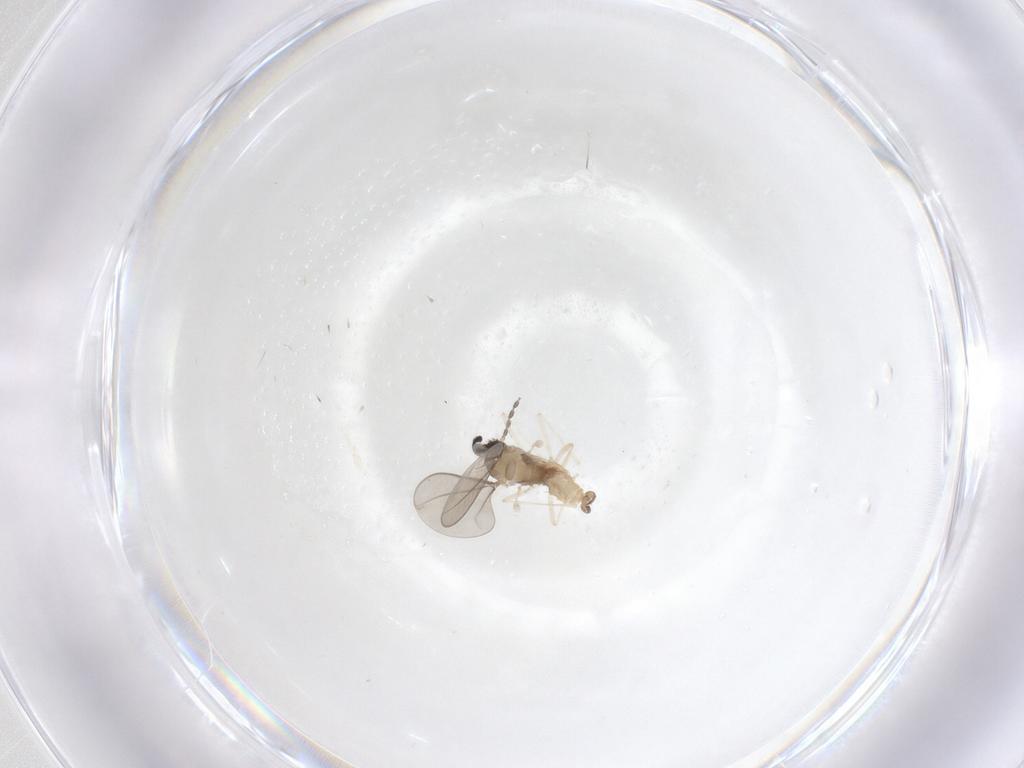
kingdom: Animalia
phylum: Arthropoda
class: Insecta
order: Diptera
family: Cecidomyiidae
